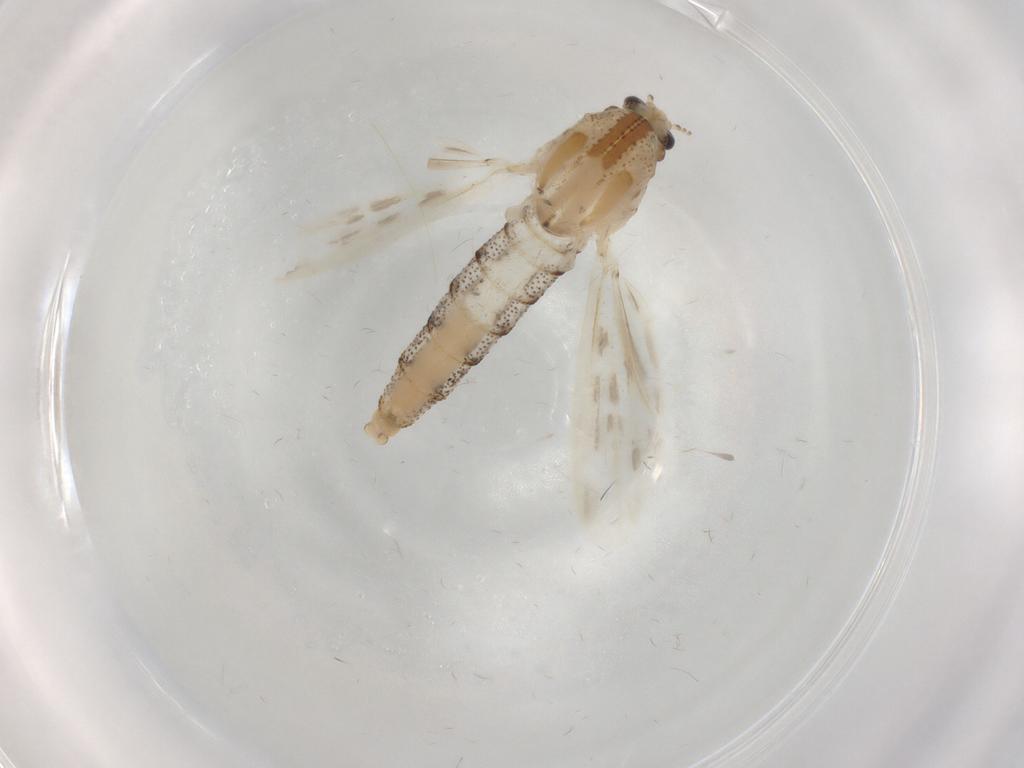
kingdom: Animalia
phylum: Arthropoda
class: Insecta
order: Diptera
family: Chaoboridae
